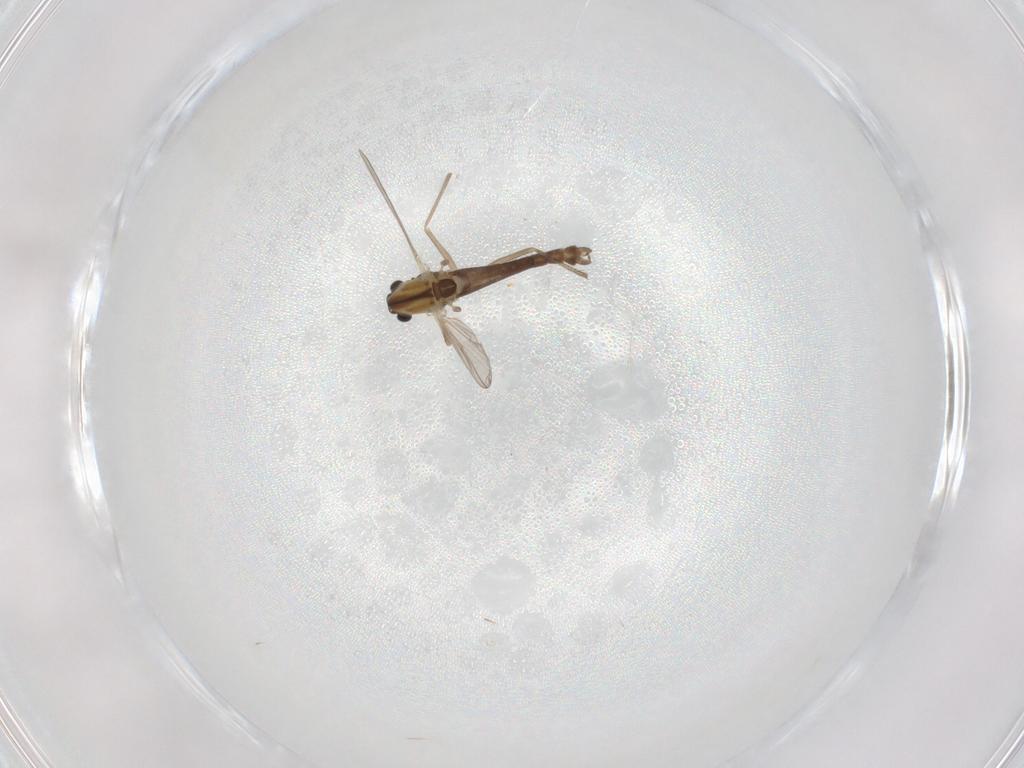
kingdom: Animalia
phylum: Arthropoda
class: Insecta
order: Diptera
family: Chironomidae
